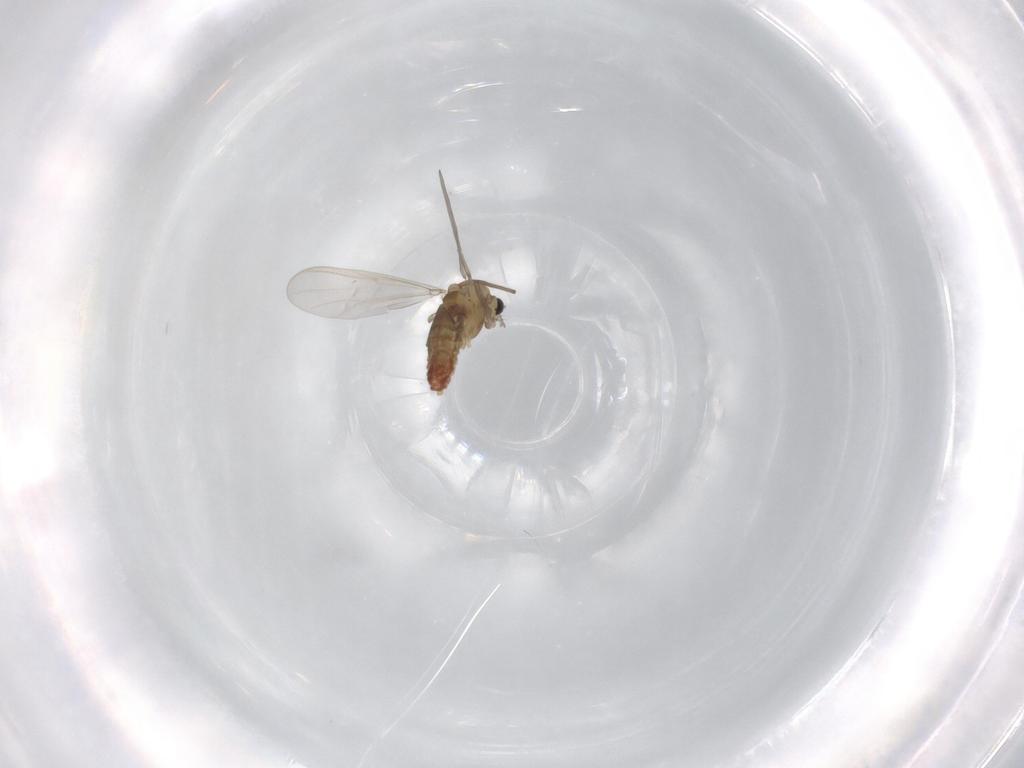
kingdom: Animalia
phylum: Arthropoda
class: Insecta
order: Diptera
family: Chironomidae
